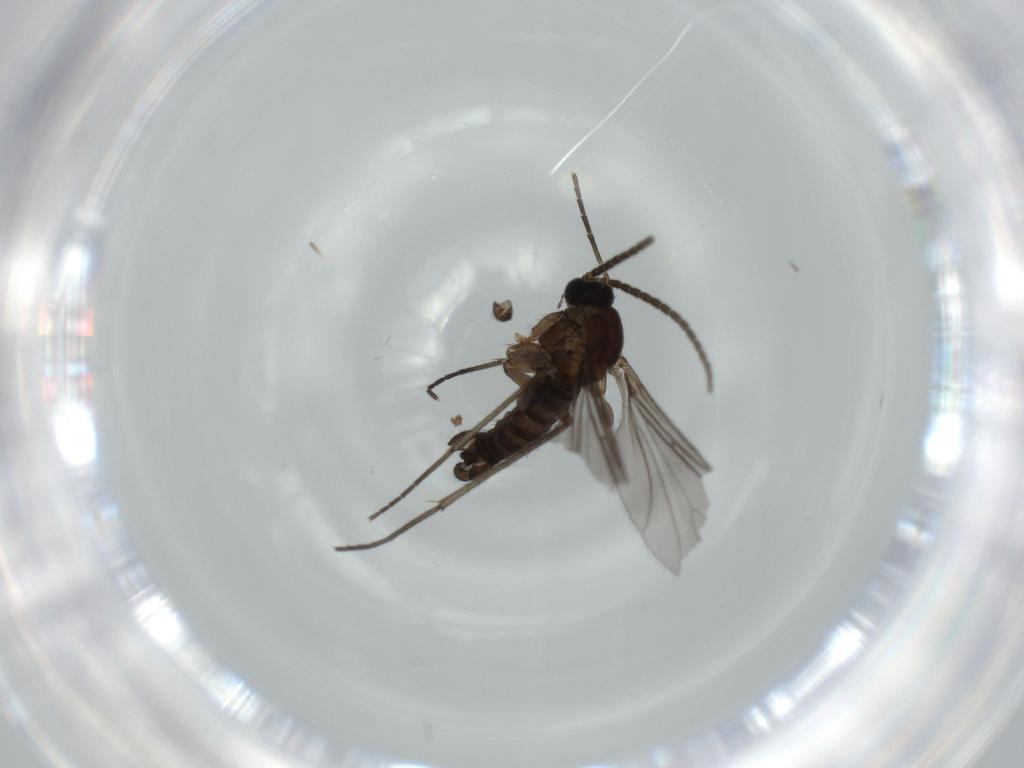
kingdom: Animalia
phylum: Arthropoda
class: Insecta
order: Diptera
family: Sciaridae
